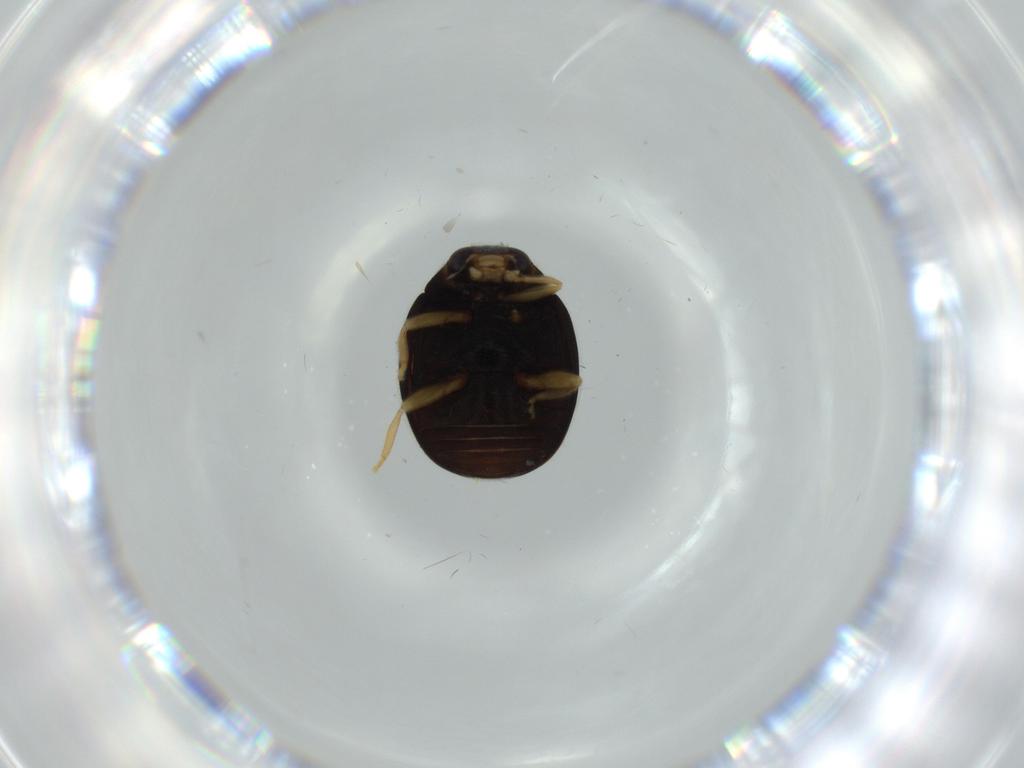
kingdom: Animalia
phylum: Arthropoda
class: Insecta
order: Coleoptera
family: Coccinellidae
